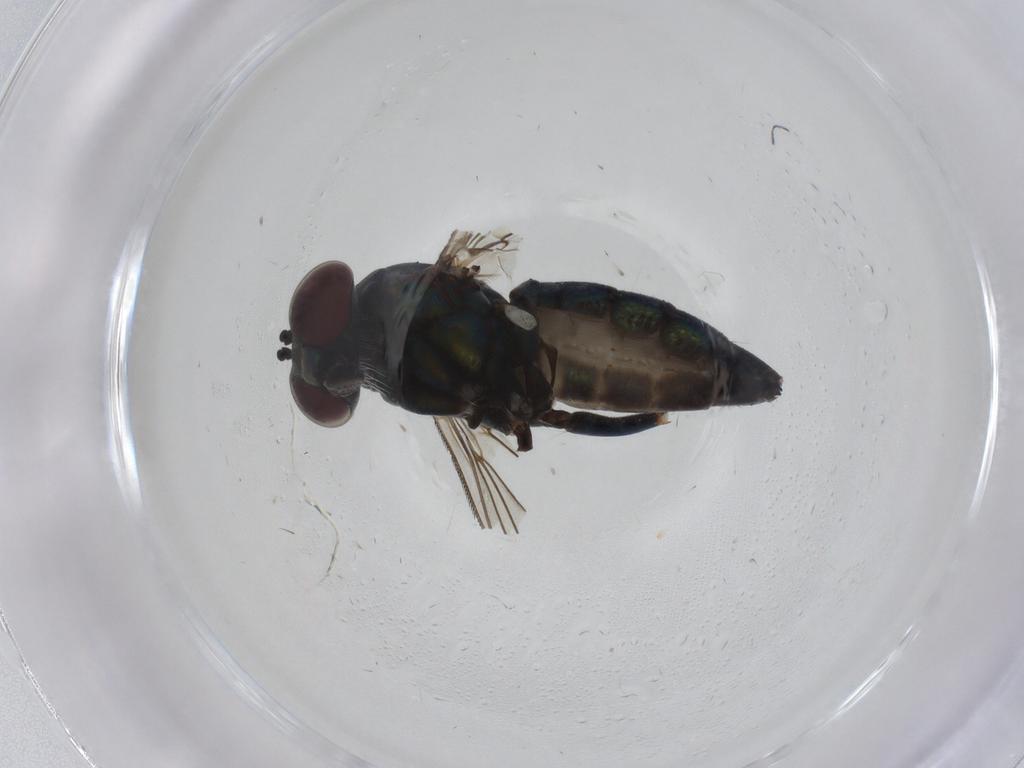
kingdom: Animalia
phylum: Arthropoda
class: Insecta
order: Diptera
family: Dolichopodidae
